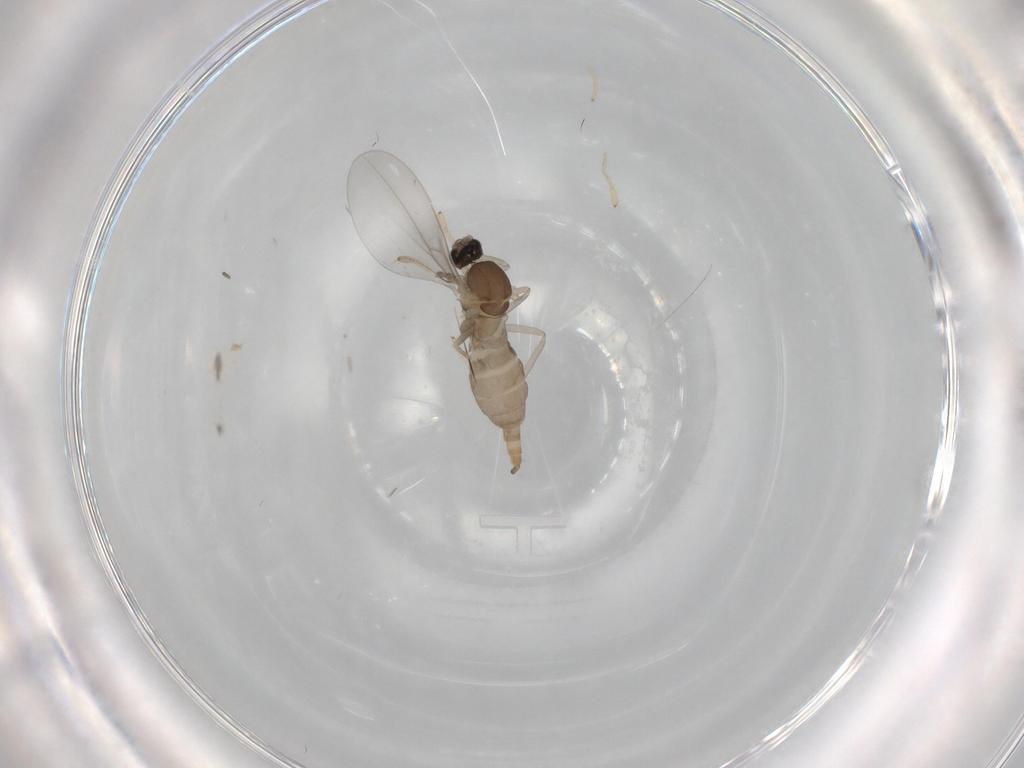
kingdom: Animalia
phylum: Arthropoda
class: Insecta
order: Diptera
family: Cecidomyiidae
